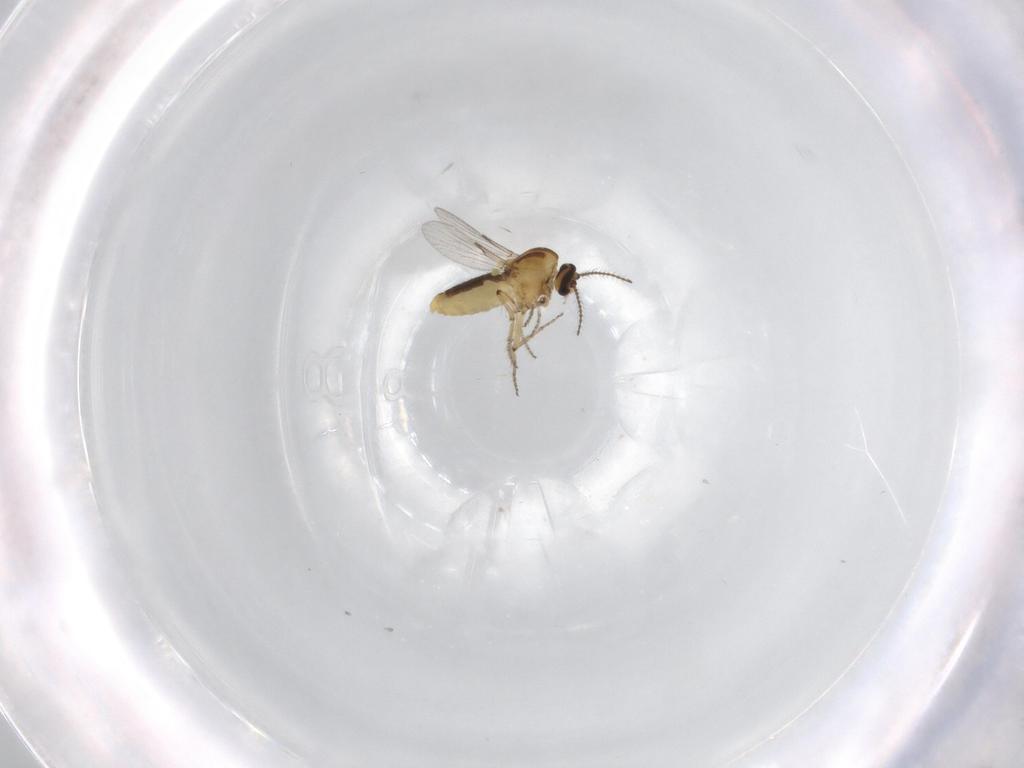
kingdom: Animalia
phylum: Arthropoda
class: Insecta
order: Diptera
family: Ceratopogonidae
